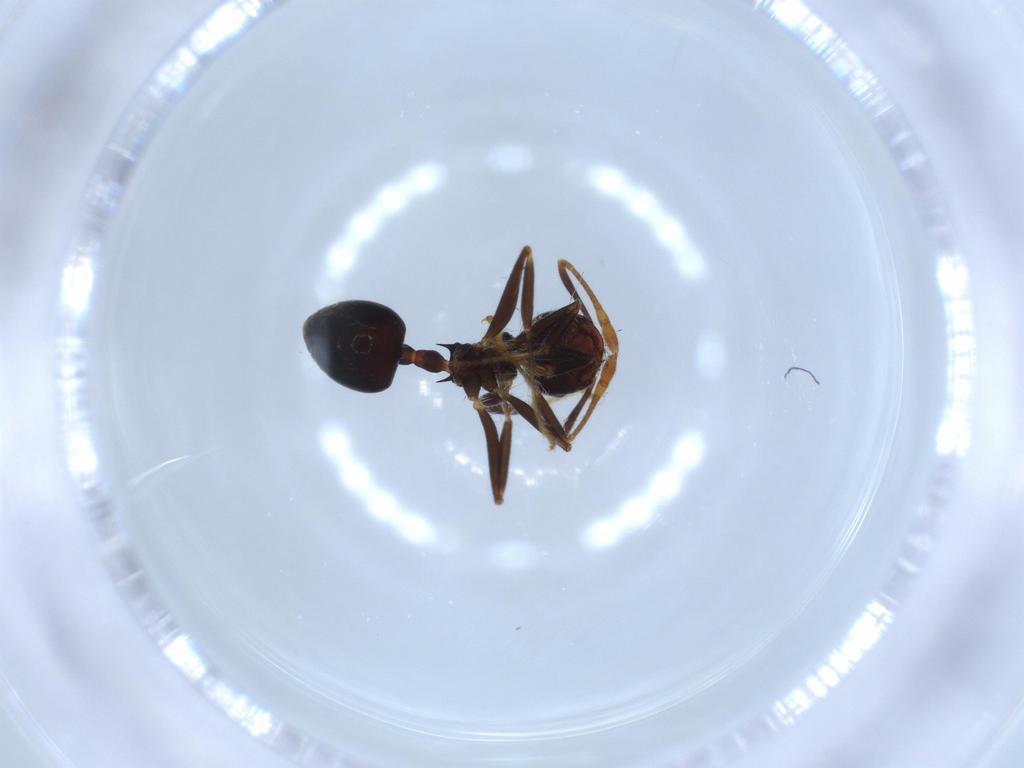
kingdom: Animalia
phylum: Arthropoda
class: Insecta
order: Hymenoptera
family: Formicidae
